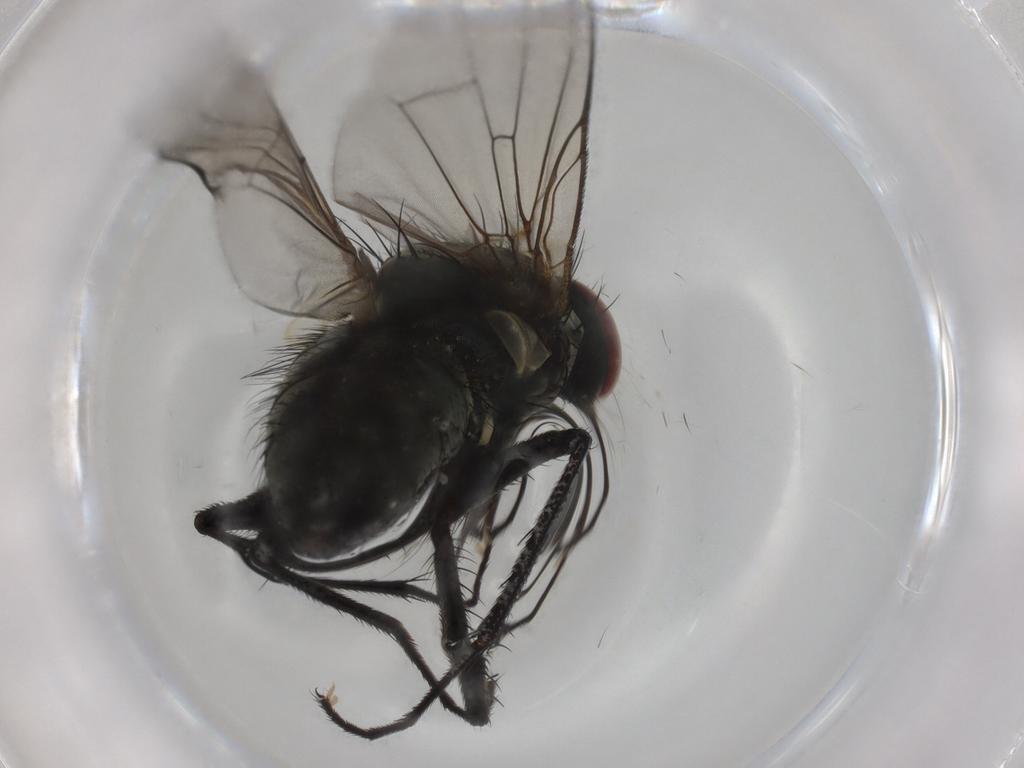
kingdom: Animalia
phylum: Arthropoda
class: Insecta
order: Diptera
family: Muscidae
